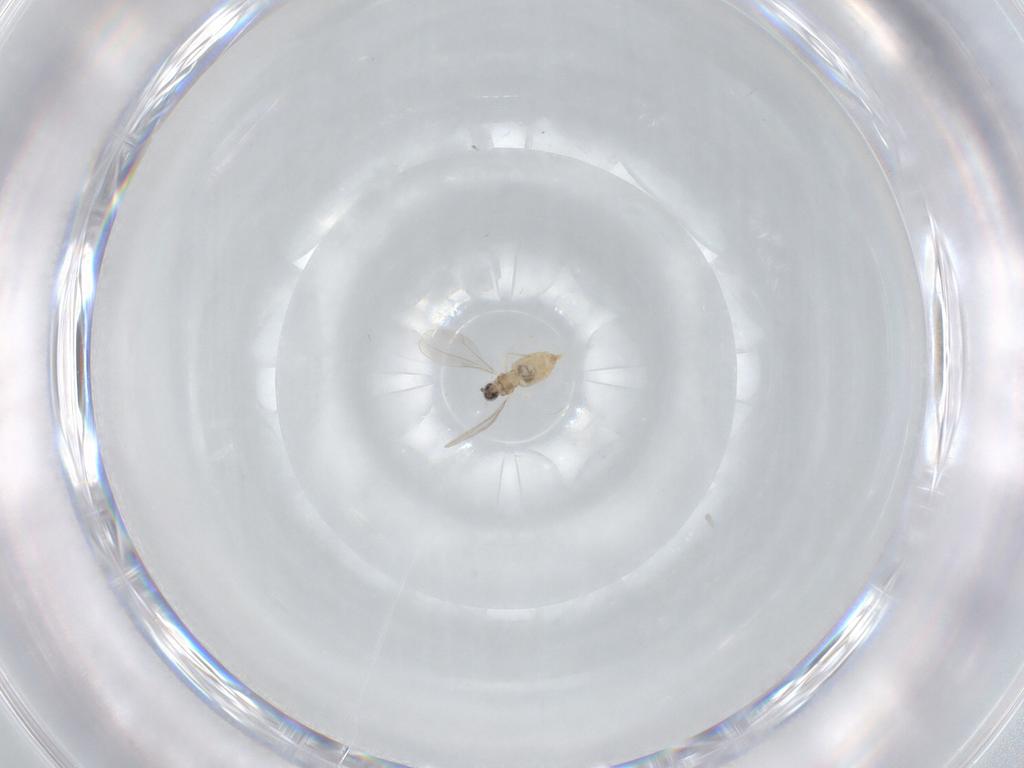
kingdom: Animalia
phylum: Arthropoda
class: Insecta
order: Diptera
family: Cecidomyiidae
